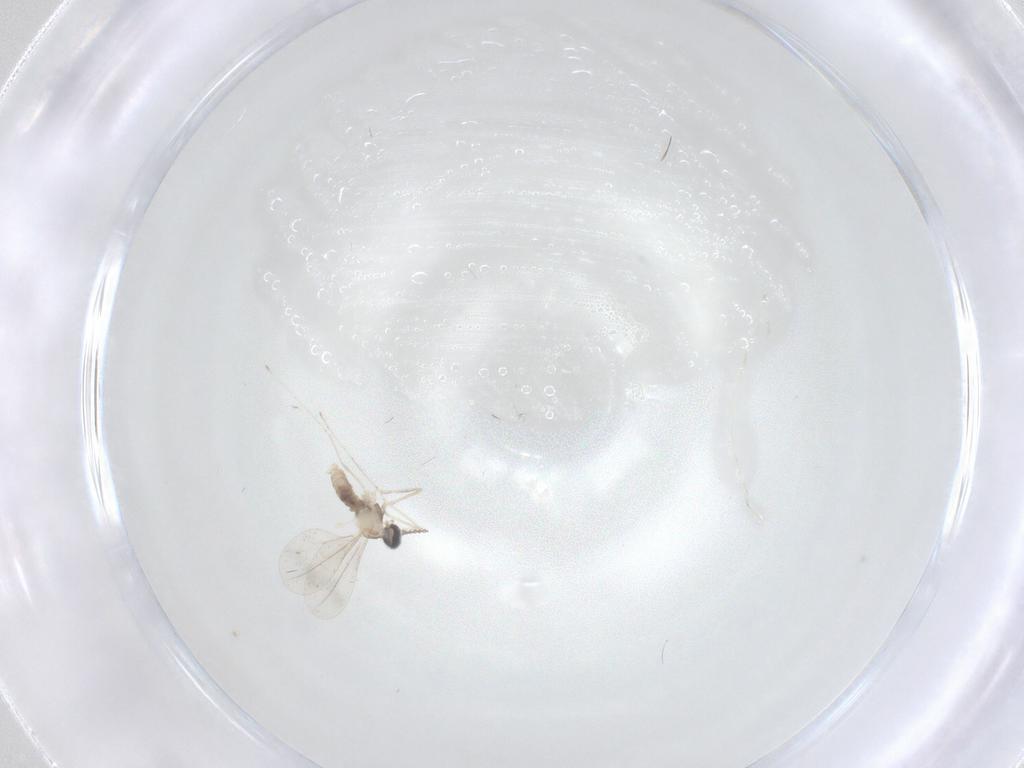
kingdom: Animalia
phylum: Arthropoda
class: Insecta
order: Diptera
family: Cecidomyiidae
